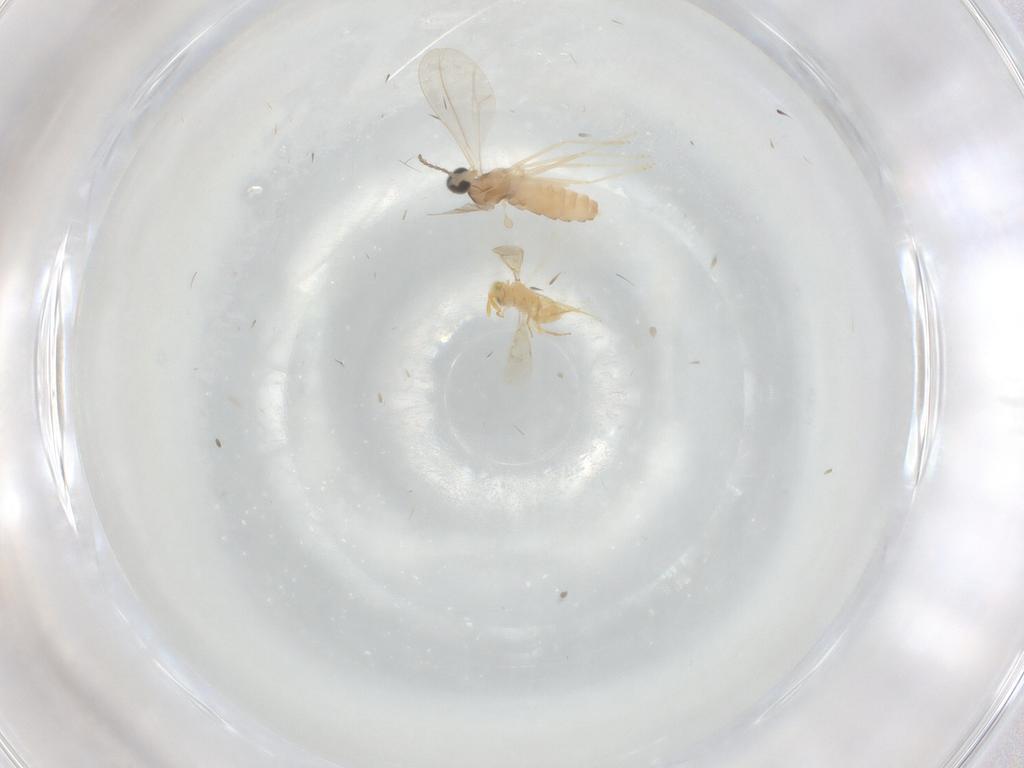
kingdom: Animalia
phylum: Arthropoda
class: Insecta
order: Diptera
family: Cecidomyiidae
